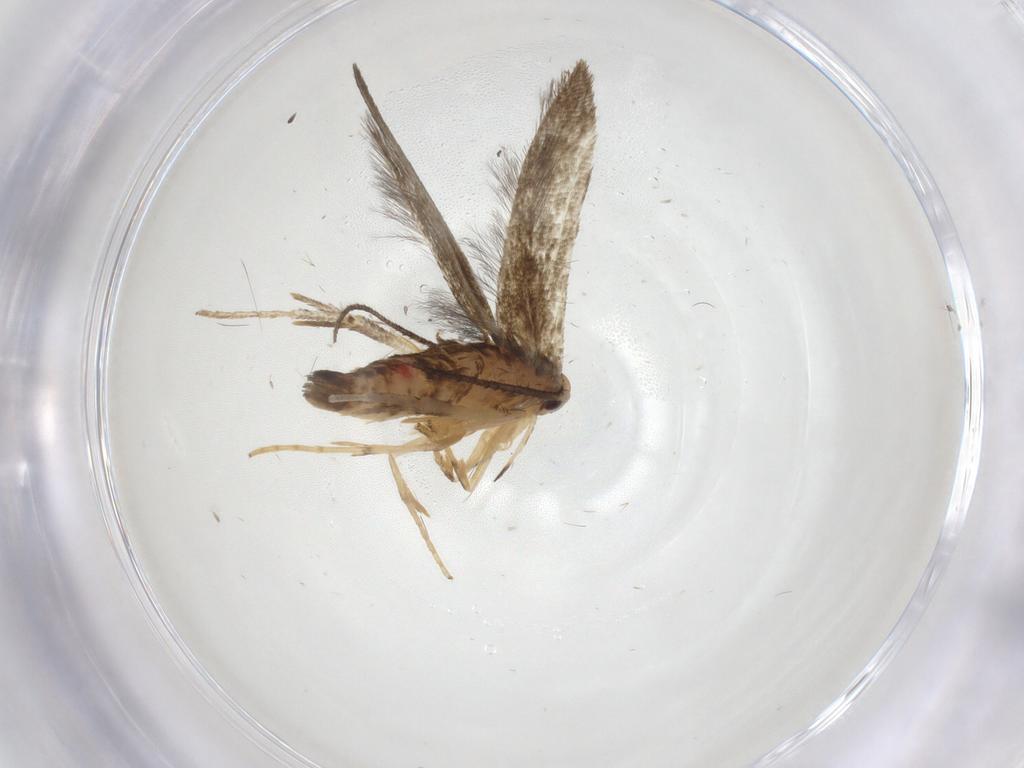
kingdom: Animalia
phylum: Arthropoda
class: Insecta
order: Lepidoptera
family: Stathmopodidae
